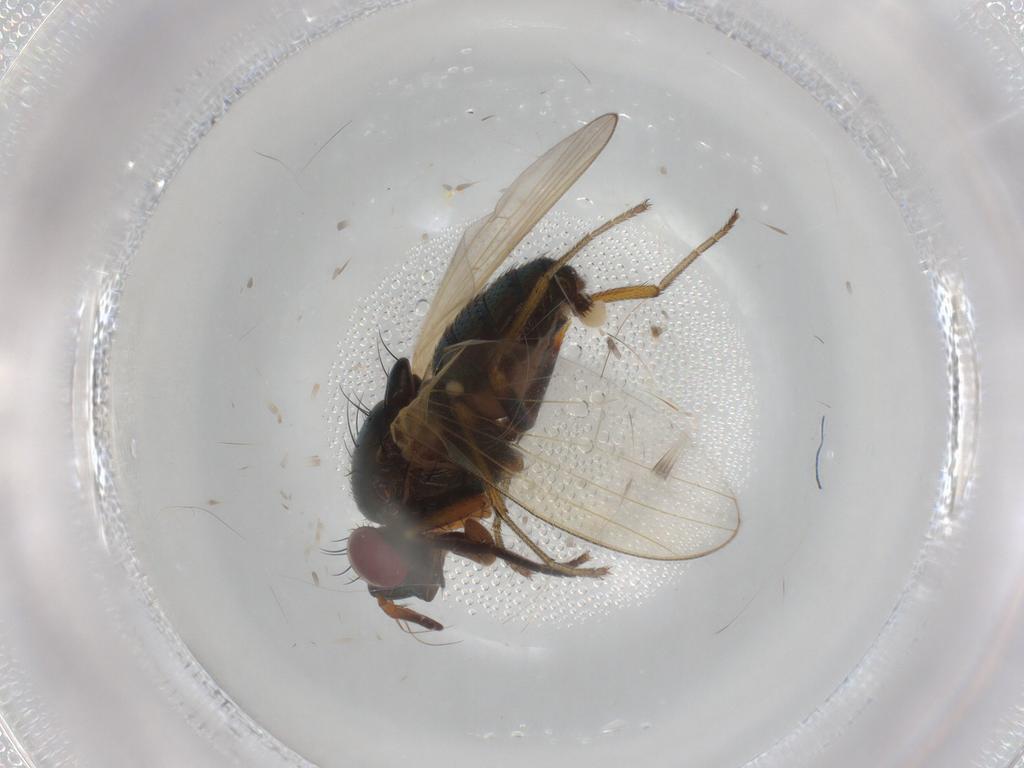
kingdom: Animalia
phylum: Arthropoda
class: Insecta
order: Diptera
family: Lauxaniidae
